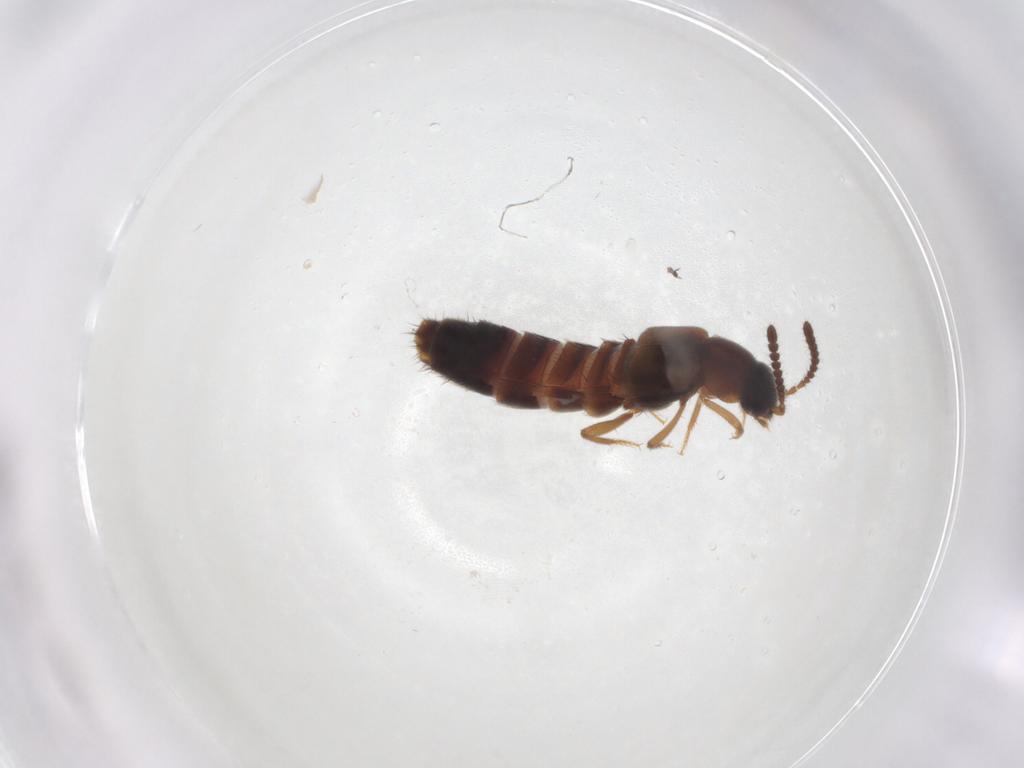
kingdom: Animalia
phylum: Arthropoda
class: Insecta
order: Coleoptera
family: Staphylinidae
